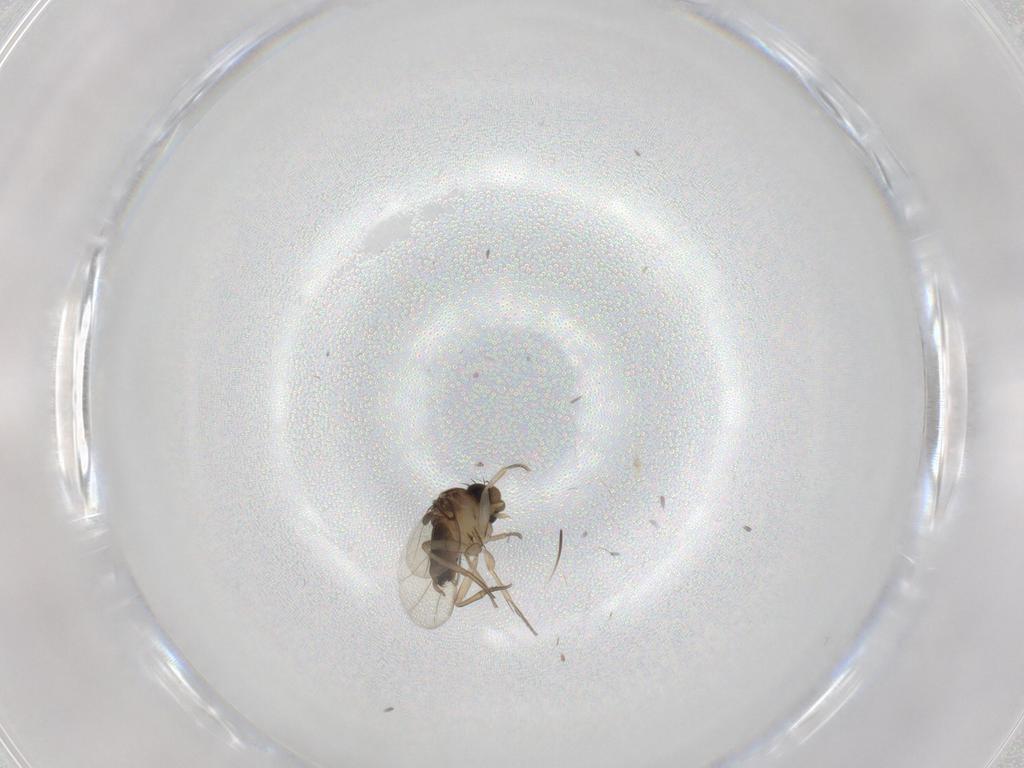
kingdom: Animalia
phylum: Arthropoda
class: Insecta
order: Diptera
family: Phoridae
